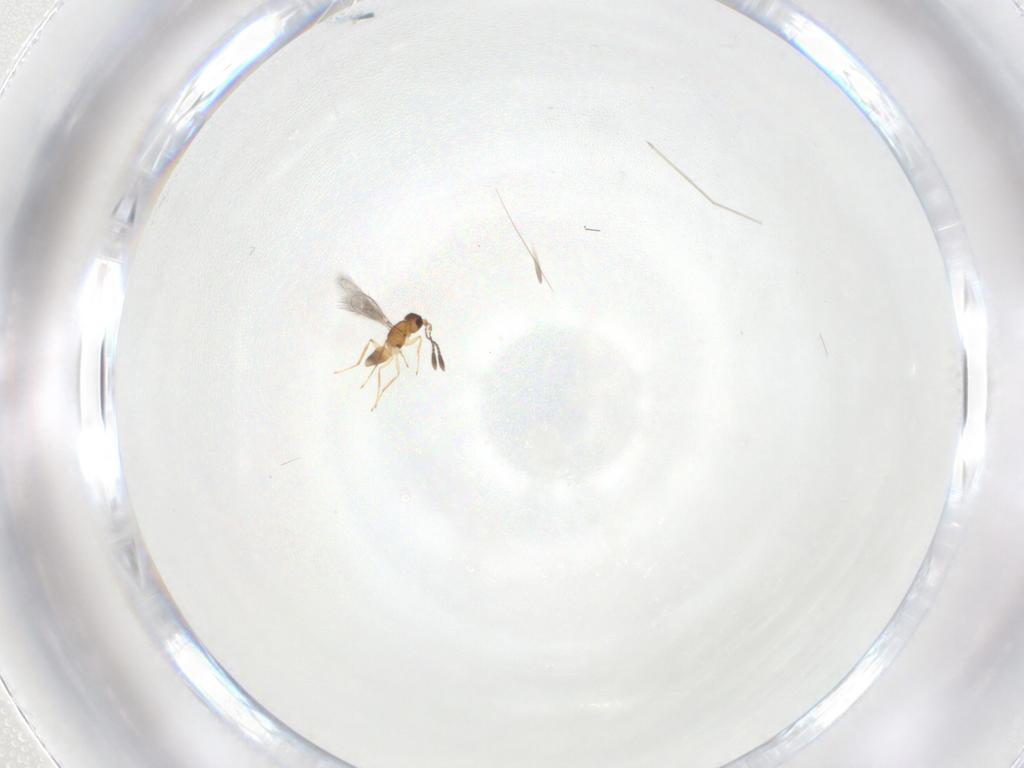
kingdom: Animalia
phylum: Arthropoda
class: Insecta
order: Hymenoptera
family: Mymaridae
